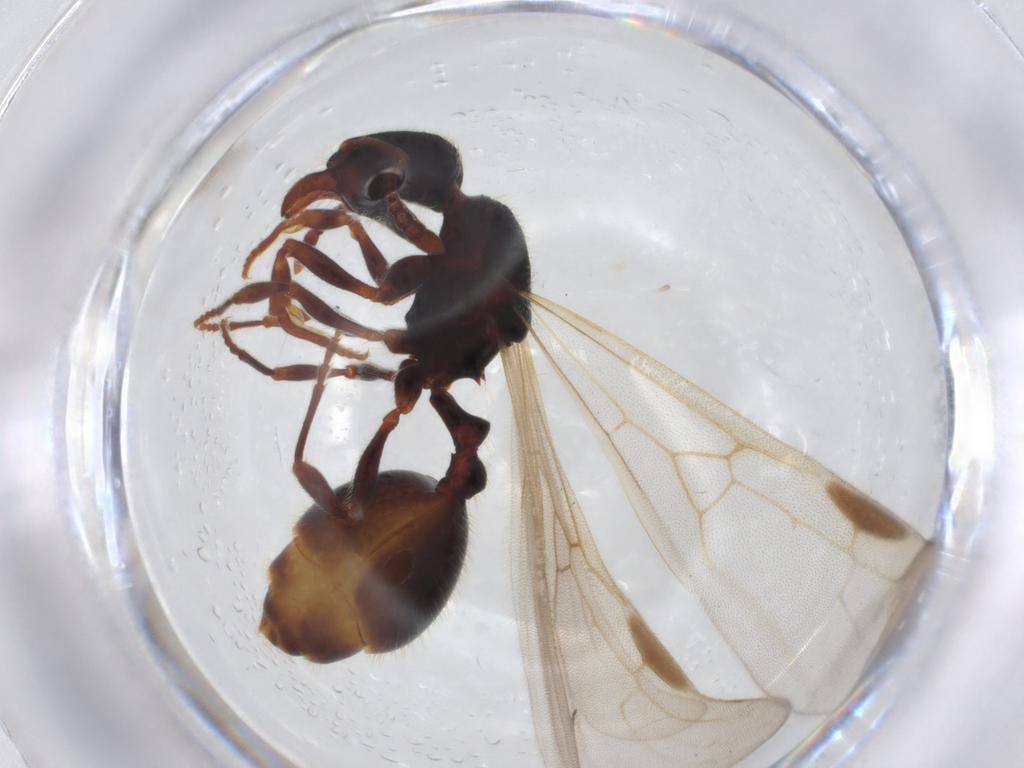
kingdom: Animalia
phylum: Arthropoda
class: Insecta
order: Hymenoptera
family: Formicidae
